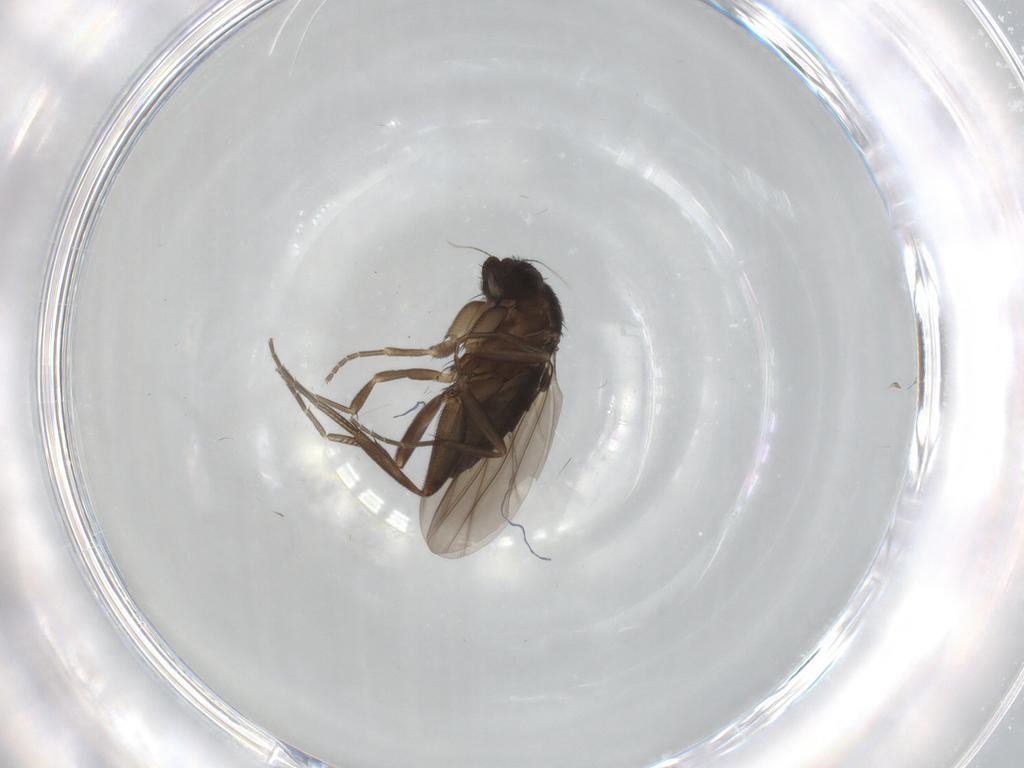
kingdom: Animalia
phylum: Arthropoda
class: Insecta
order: Diptera
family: Phoridae
